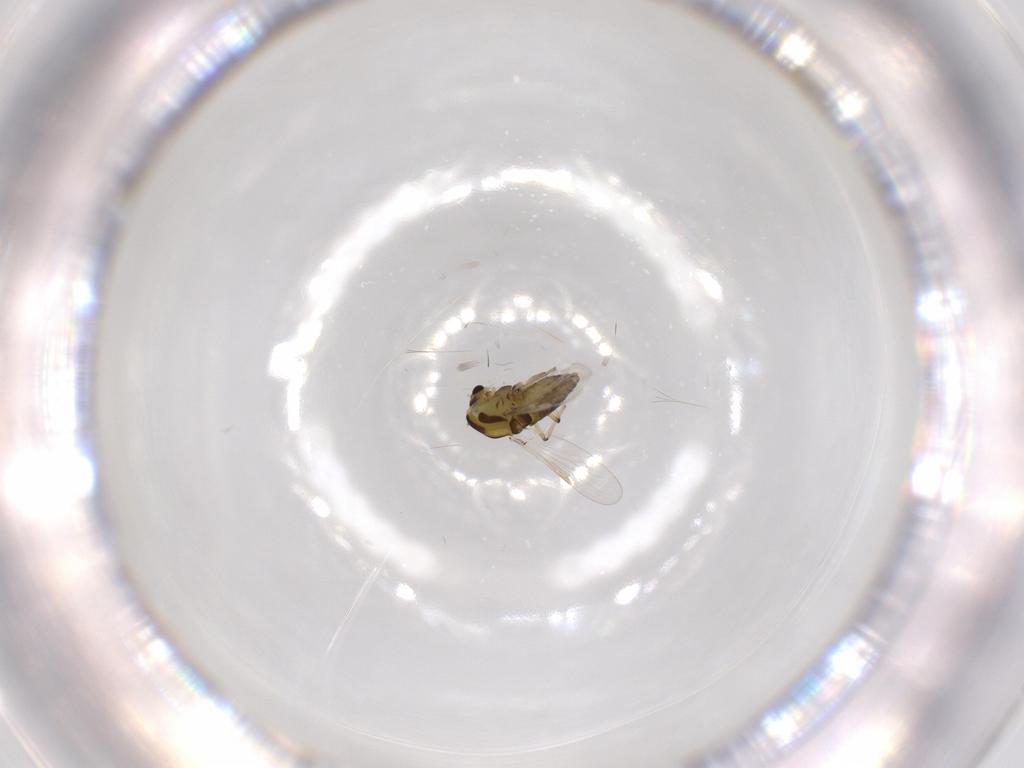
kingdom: Animalia
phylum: Arthropoda
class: Insecta
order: Diptera
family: Chironomidae
